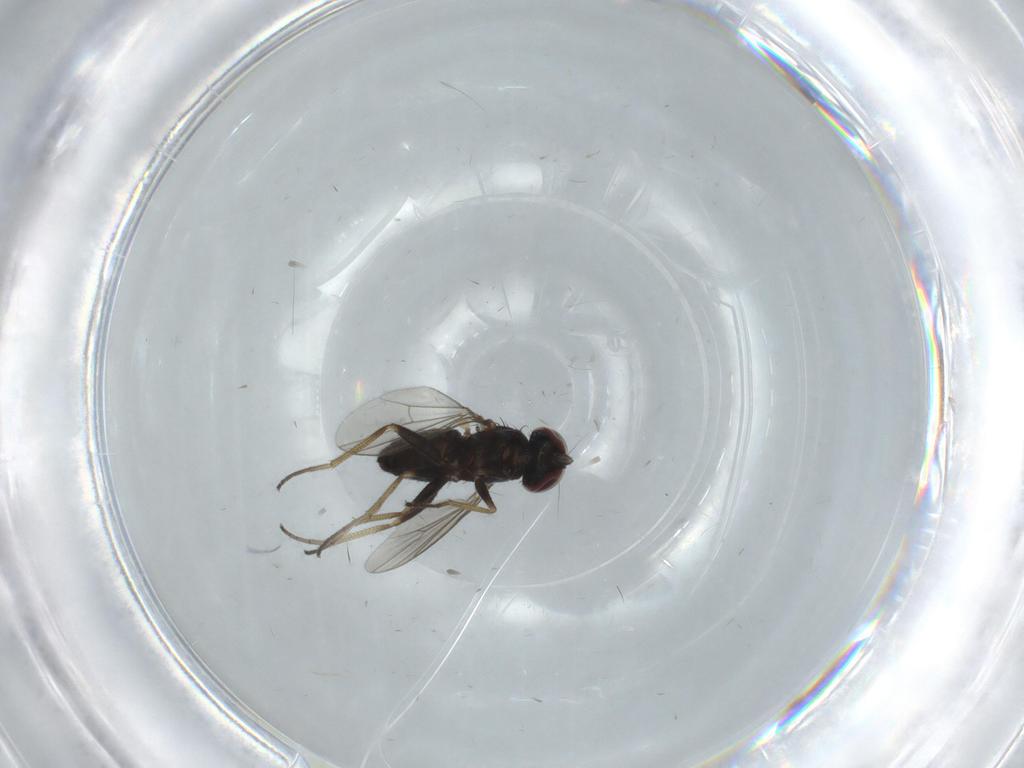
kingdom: Animalia
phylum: Arthropoda
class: Insecta
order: Diptera
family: Dolichopodidae
